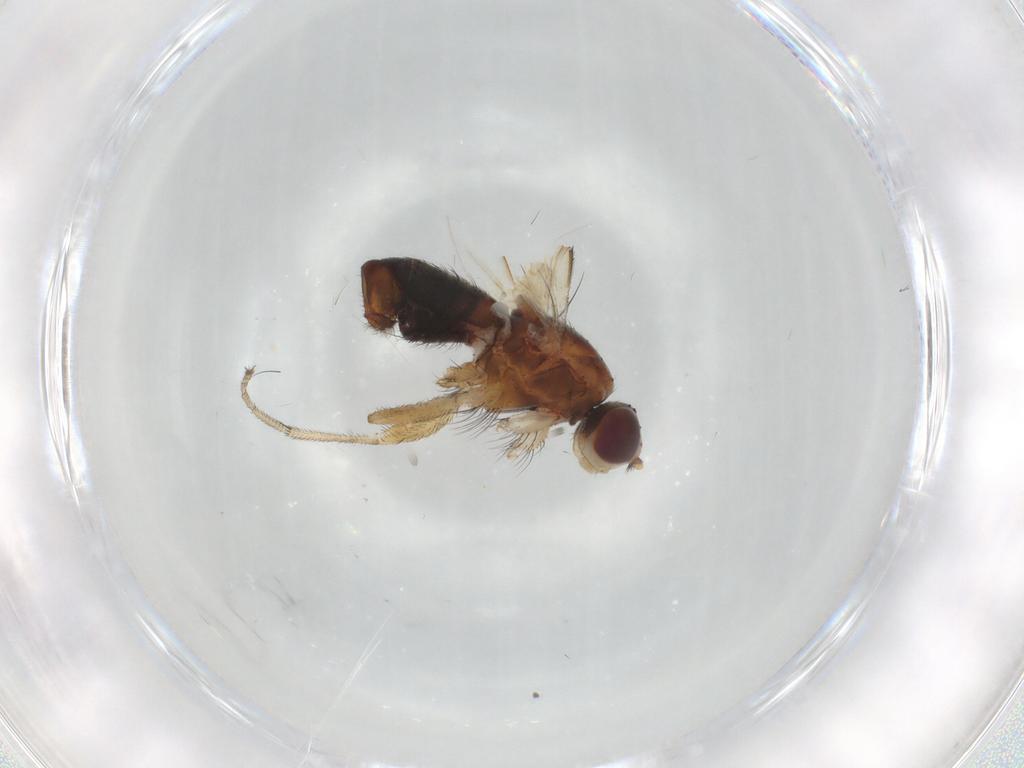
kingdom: Animalia
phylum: Arthropoda
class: Insecta
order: Diptera
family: Heleomyzidae
